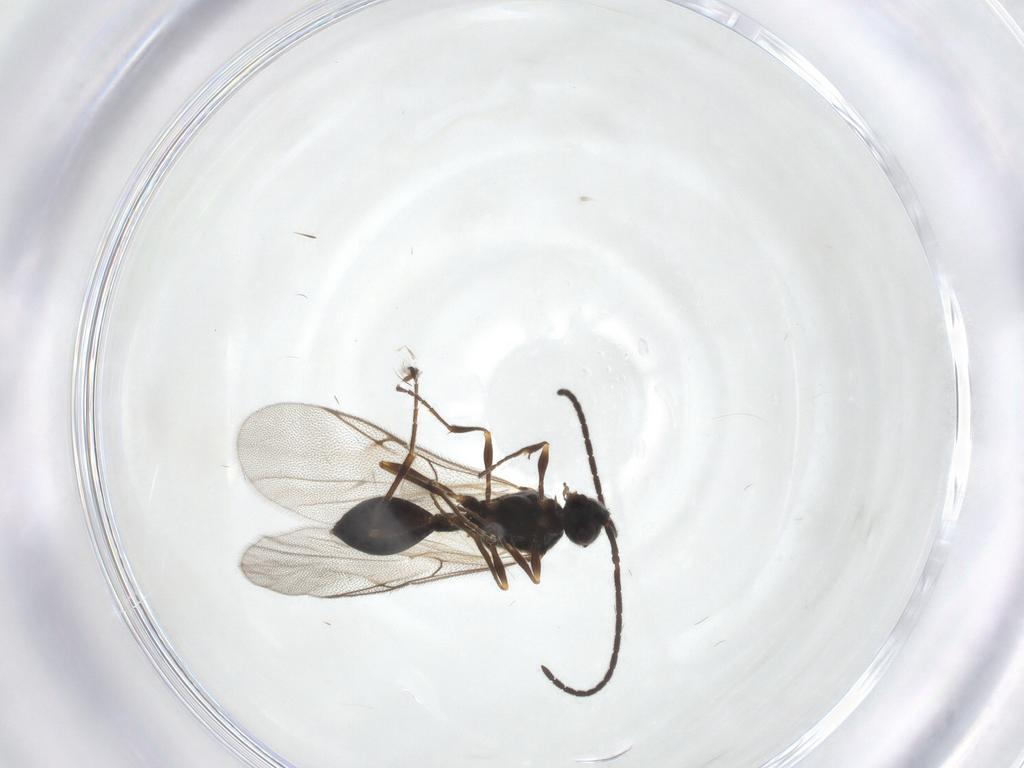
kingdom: Animalia
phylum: Arthropoda
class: Insecta
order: Hymenoptera
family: Diapriidae
